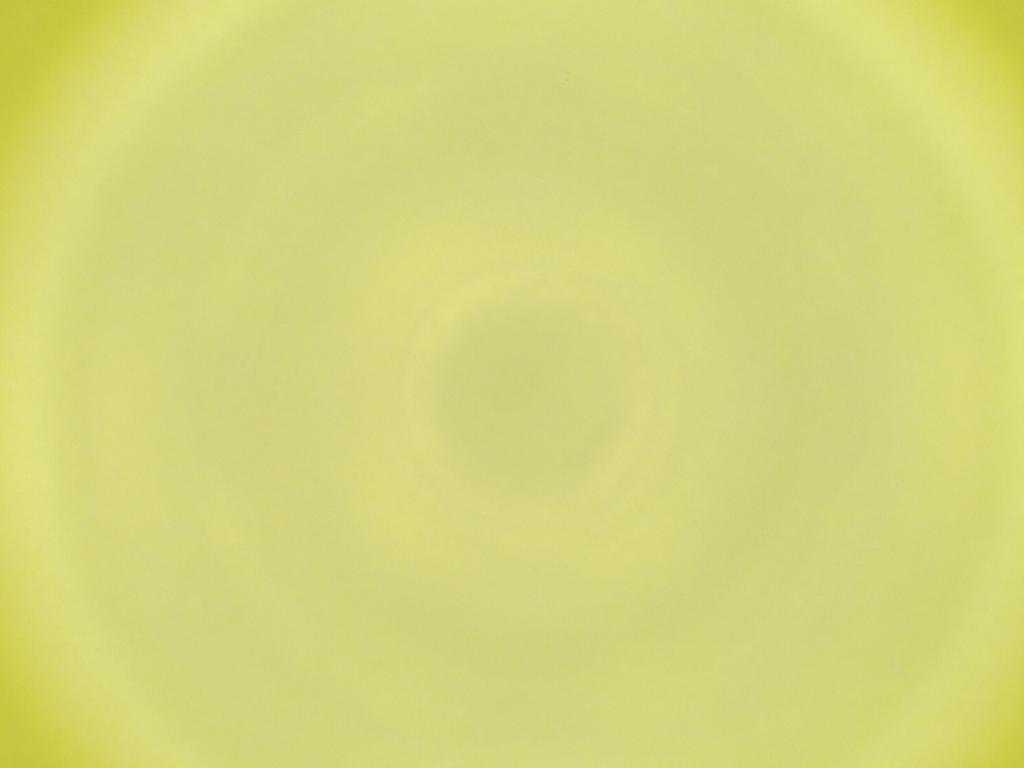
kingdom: Animalia
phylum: Arthropoda
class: Insecta
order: Diptera
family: Cecidomyiidae
